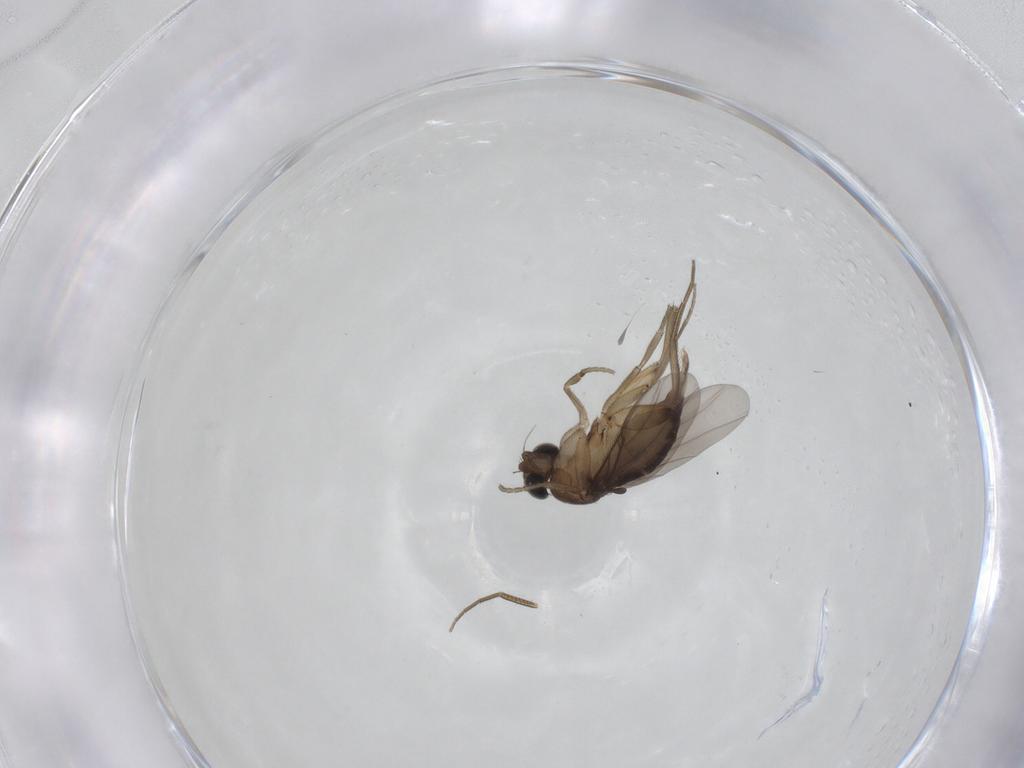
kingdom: Animalia
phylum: Arthropoda
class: Insecta
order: Diptera
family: Phoridae
